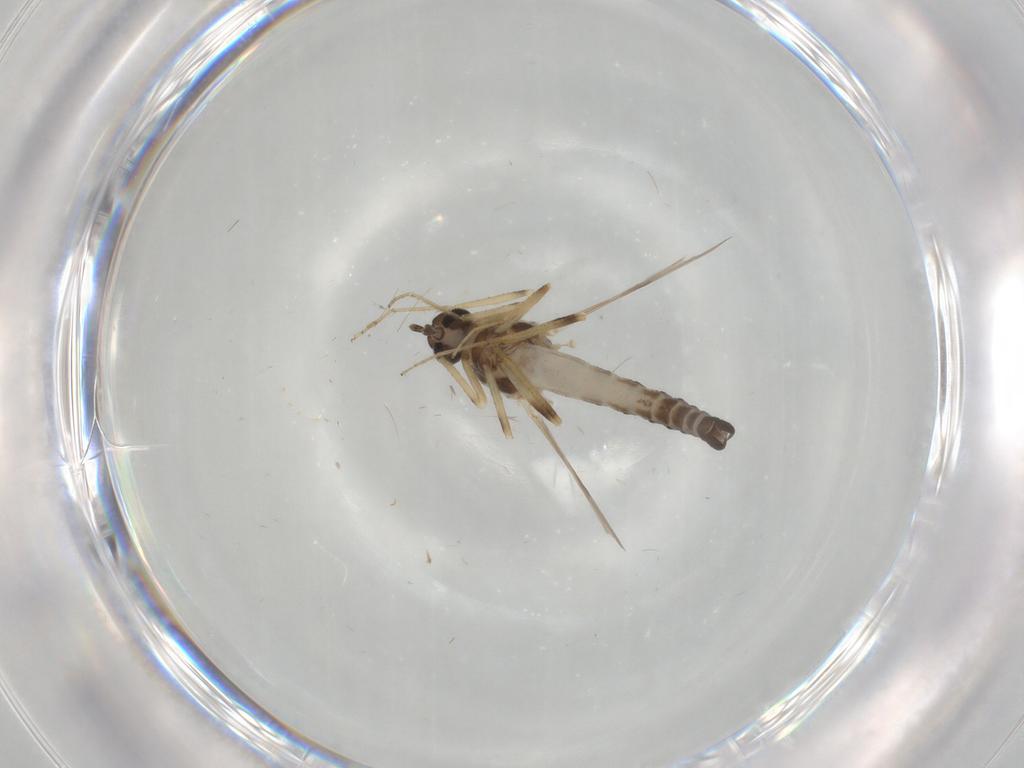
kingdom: Animalia
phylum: Arthropoda
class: Insecta
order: Diptera
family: Ceratopogonidae
